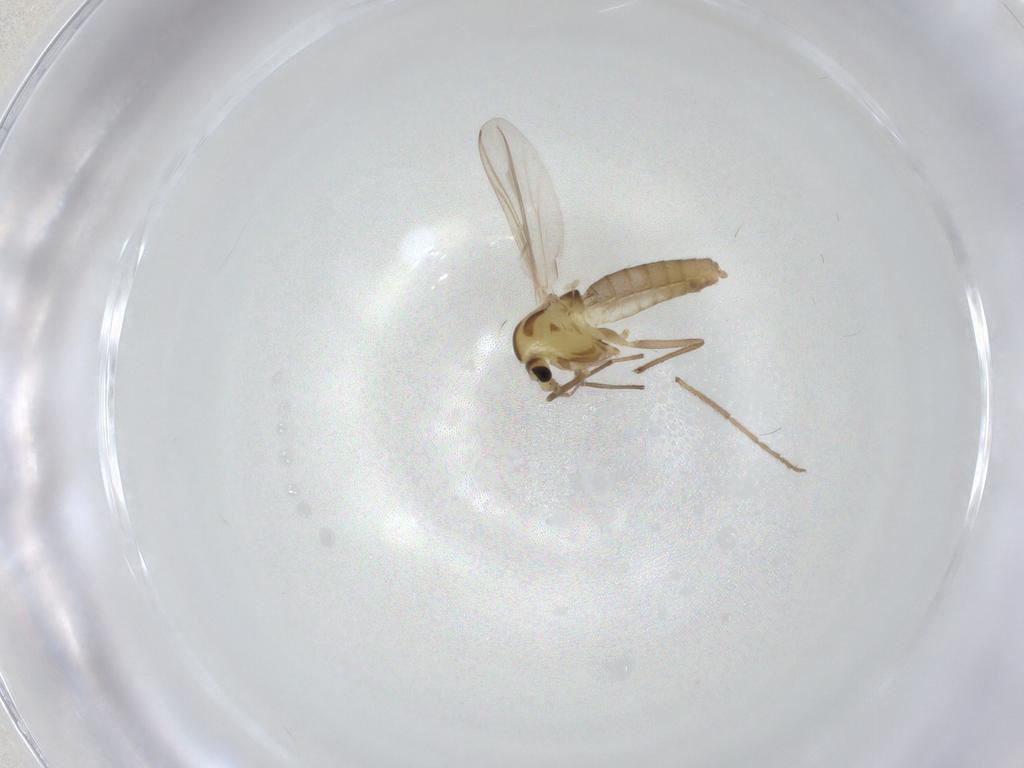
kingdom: Animalia
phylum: Arthropoda
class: Insecta
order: Diptera
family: Chironomidae
